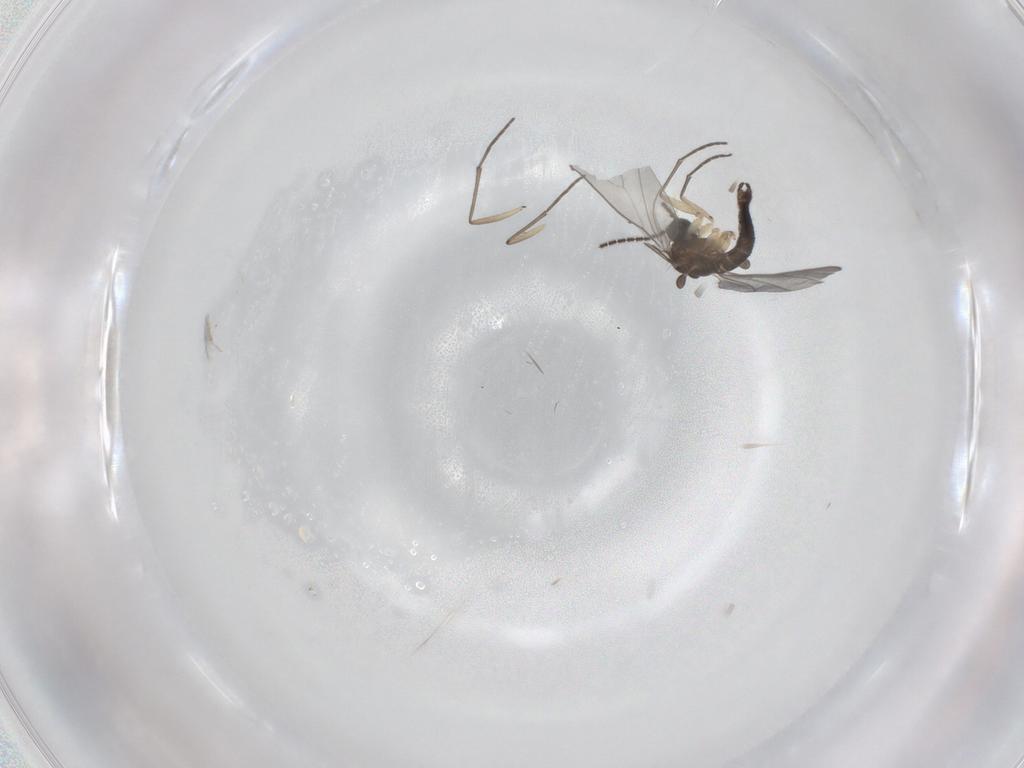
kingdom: Animalia
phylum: Arthropoda
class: Insecta
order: Diptera
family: Sciaridae
